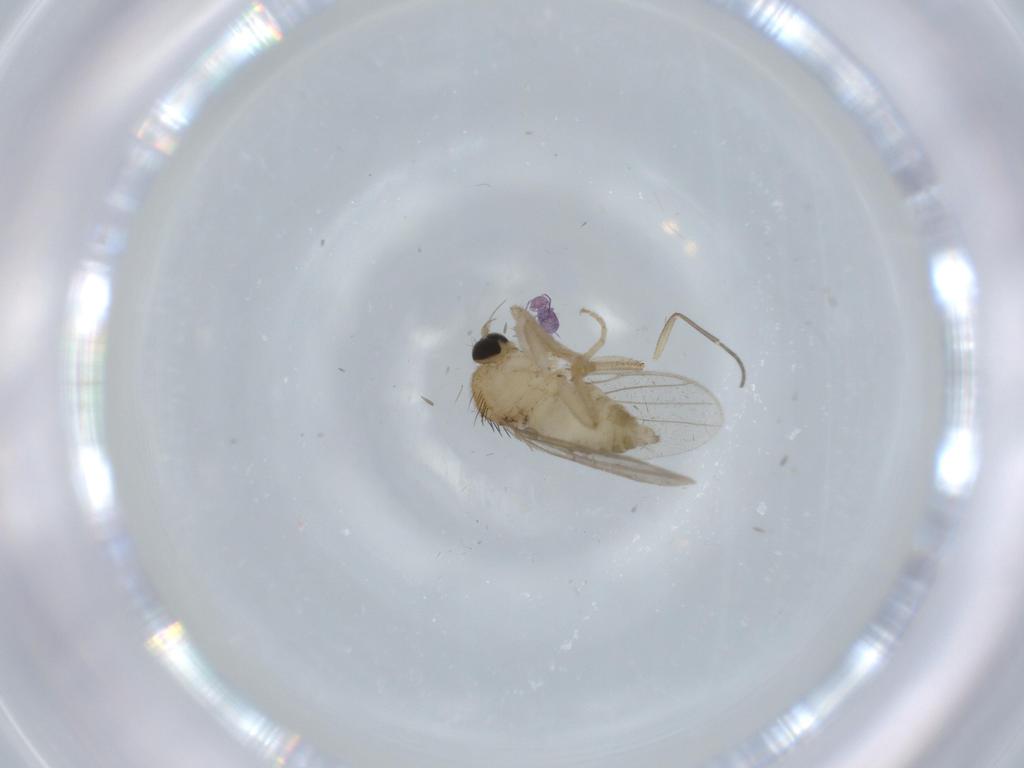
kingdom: Animalia
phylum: Arthropoda
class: Insecta
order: Diptera
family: Hybotidae
